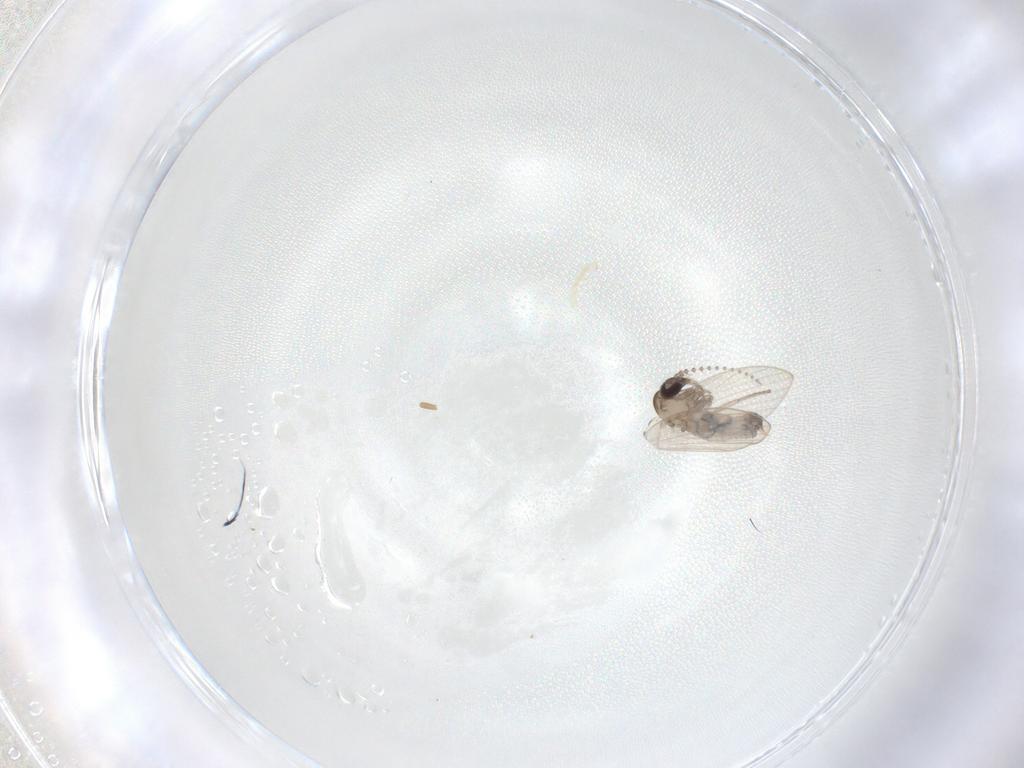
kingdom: Animalia
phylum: Arthropoda
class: Insecta
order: Diptera
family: Psychodidae
